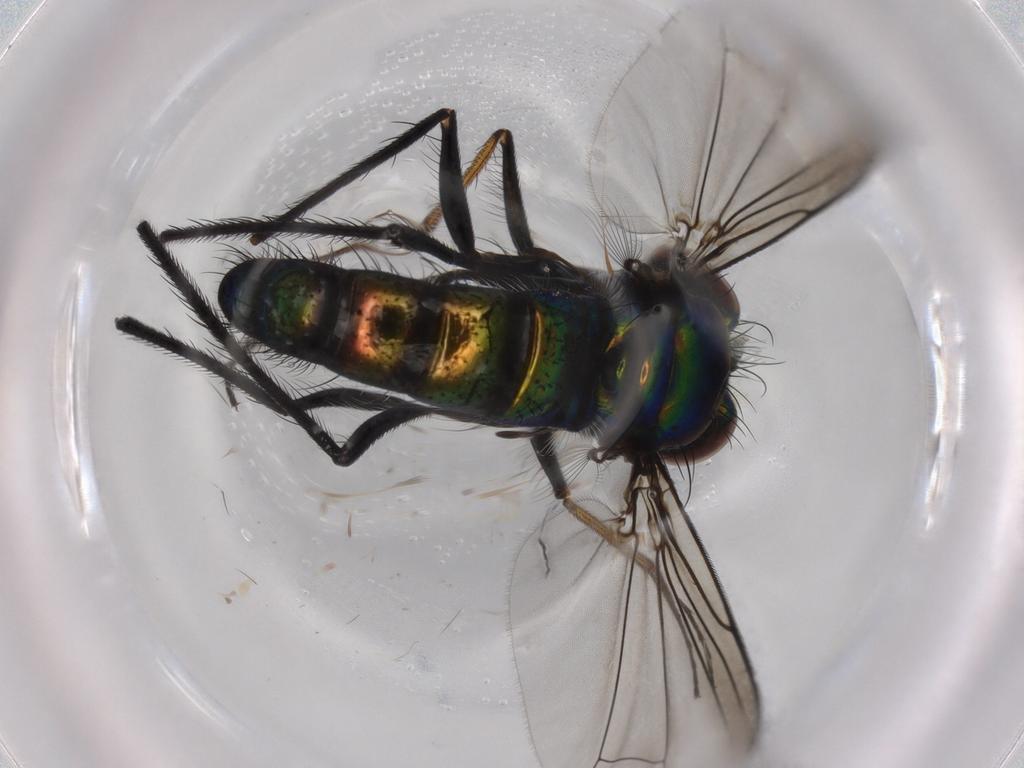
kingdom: Animalia
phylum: Arthropoda
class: Insecta
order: Diptera
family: Dolichopodidae
